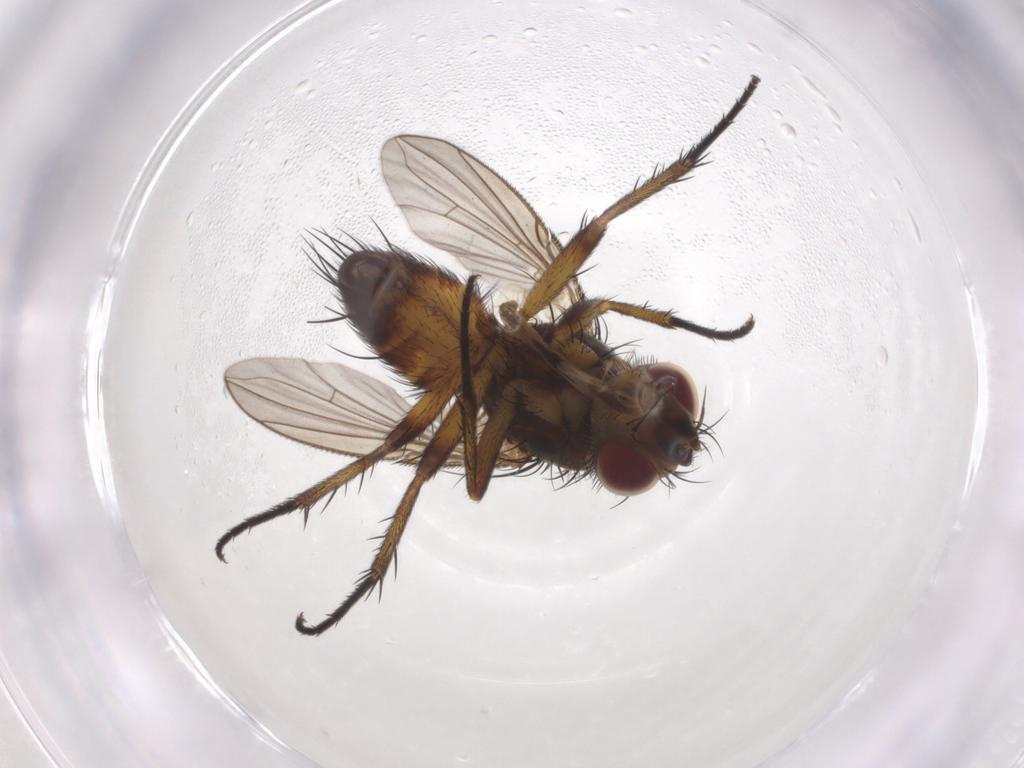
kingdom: Animalia
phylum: Arthropoda
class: Insecta
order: Diptera
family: Tachinidae
